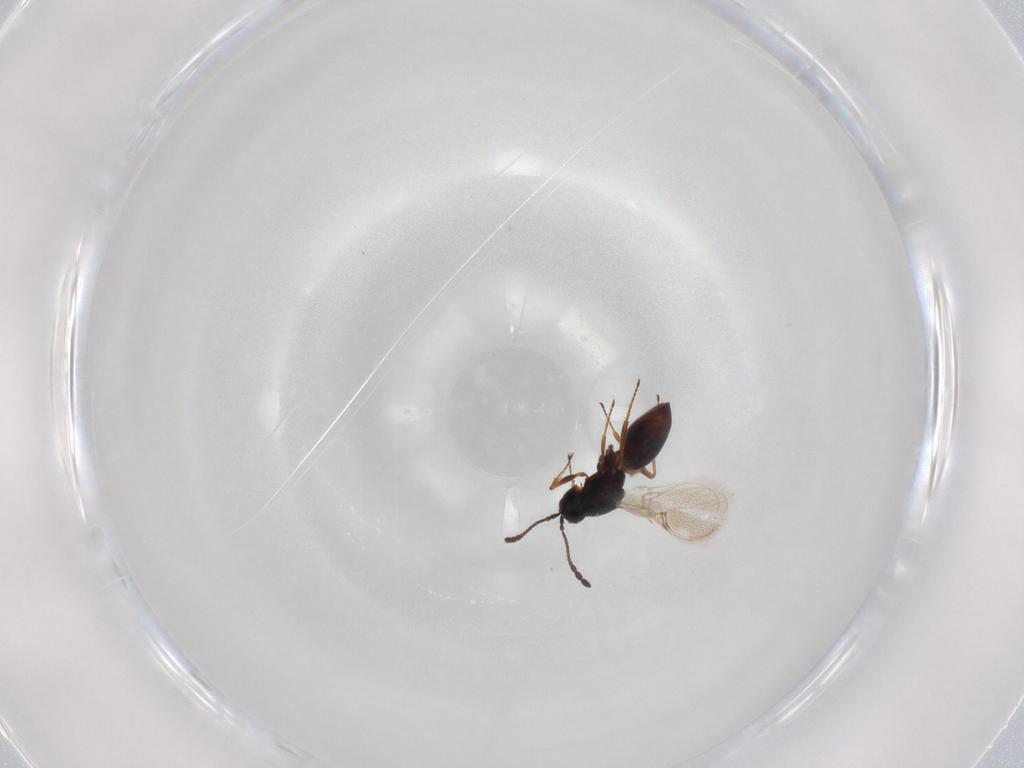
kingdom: Animalia
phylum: Arthropoda
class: Insecta
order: Hymenoptera
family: Figitidae
